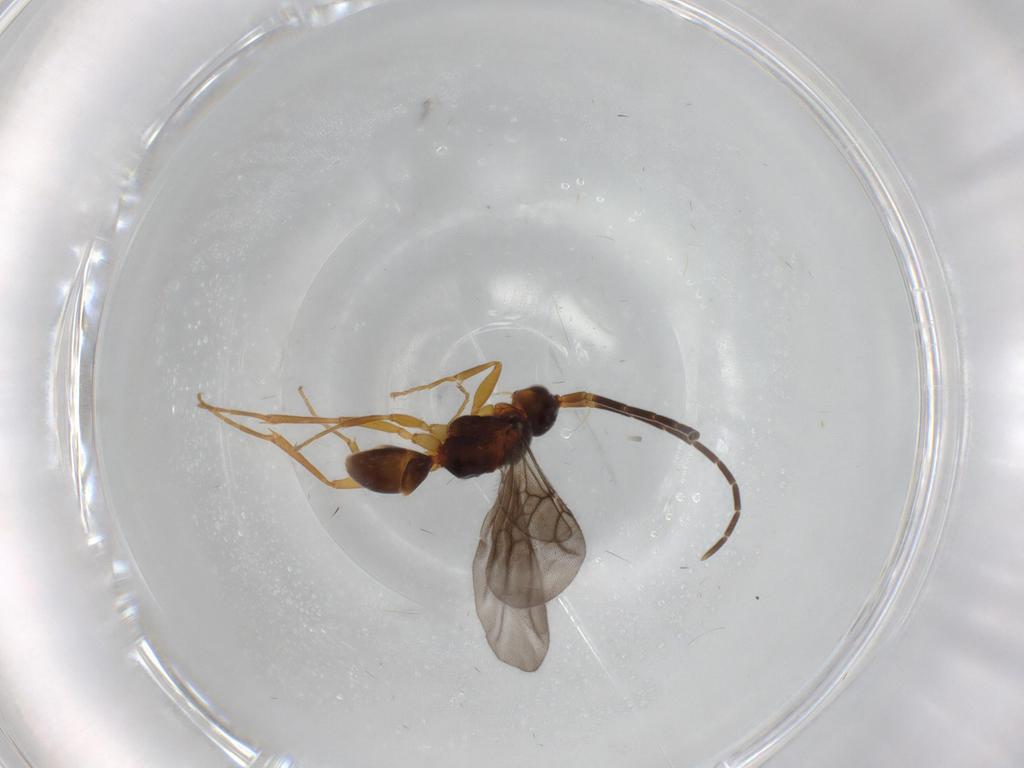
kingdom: Animalia
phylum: Arthropoda
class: Insecta
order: Hymenoptera
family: Embolemidae
